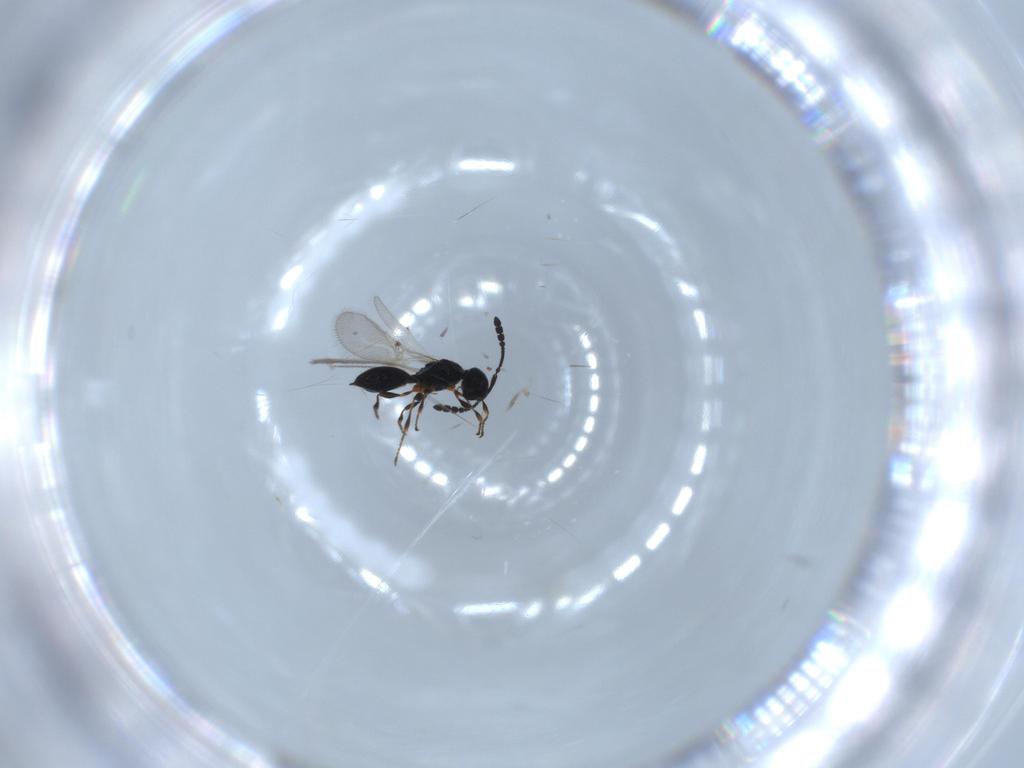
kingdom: Animalia
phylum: Arthropoda
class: Insecta
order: Hymenoptera
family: Diapriidae
